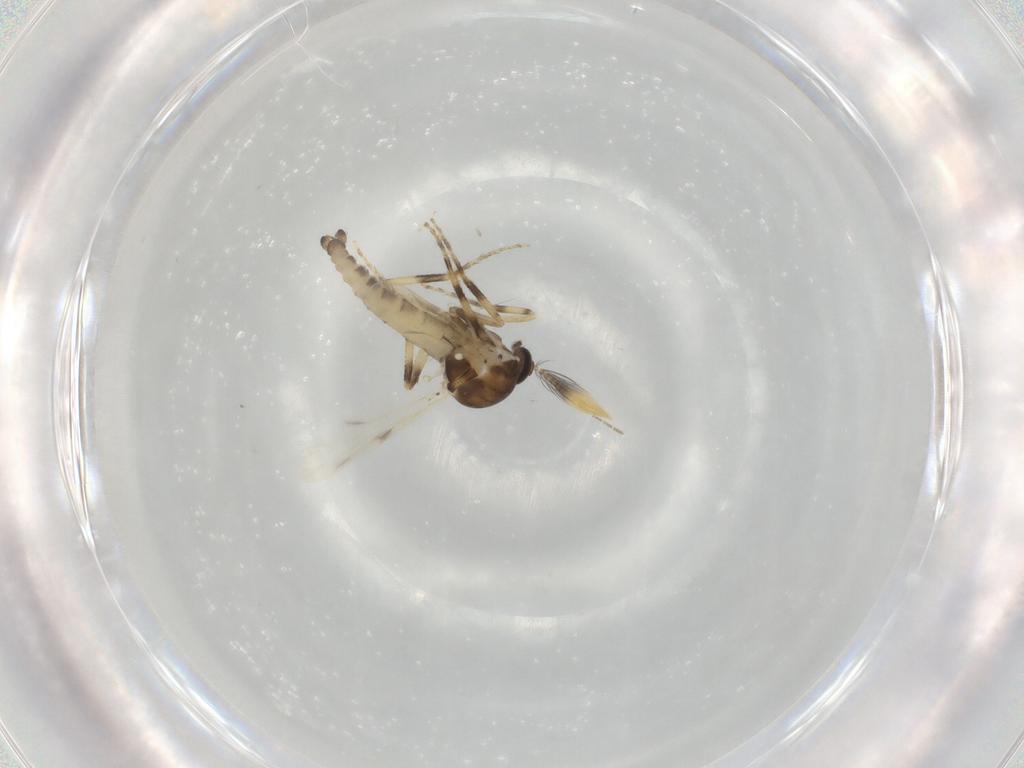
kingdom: Animalia
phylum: Arthropoda
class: Insecta
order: Diptera
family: Ceratopogonidae
